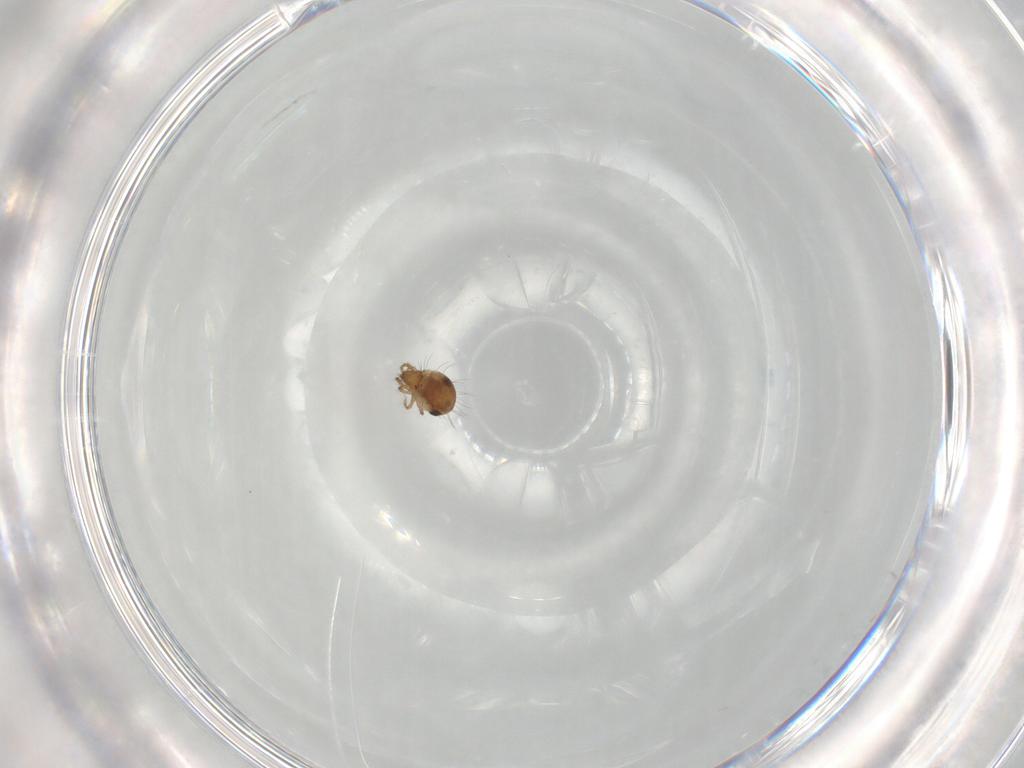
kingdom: Animalia
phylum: Arthropoda
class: Arachnida
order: Sarcoptiformes
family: Humerobatidae
